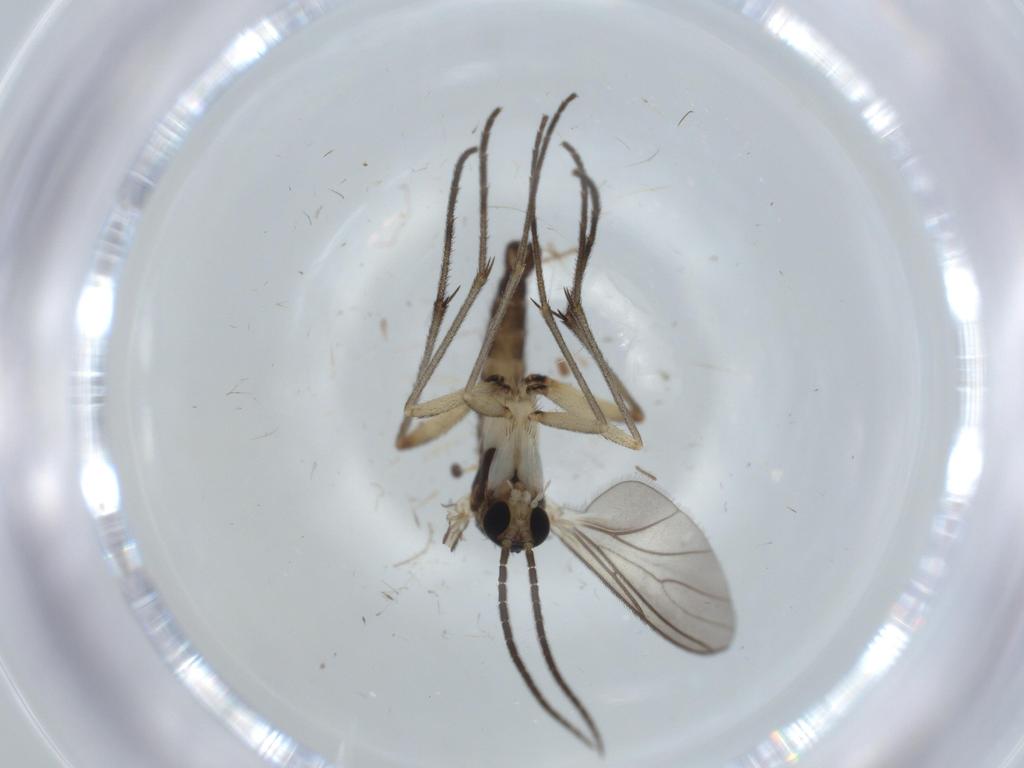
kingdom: Animalia
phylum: Arthropoda
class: Insecta
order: Diptera
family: Sciaridae
